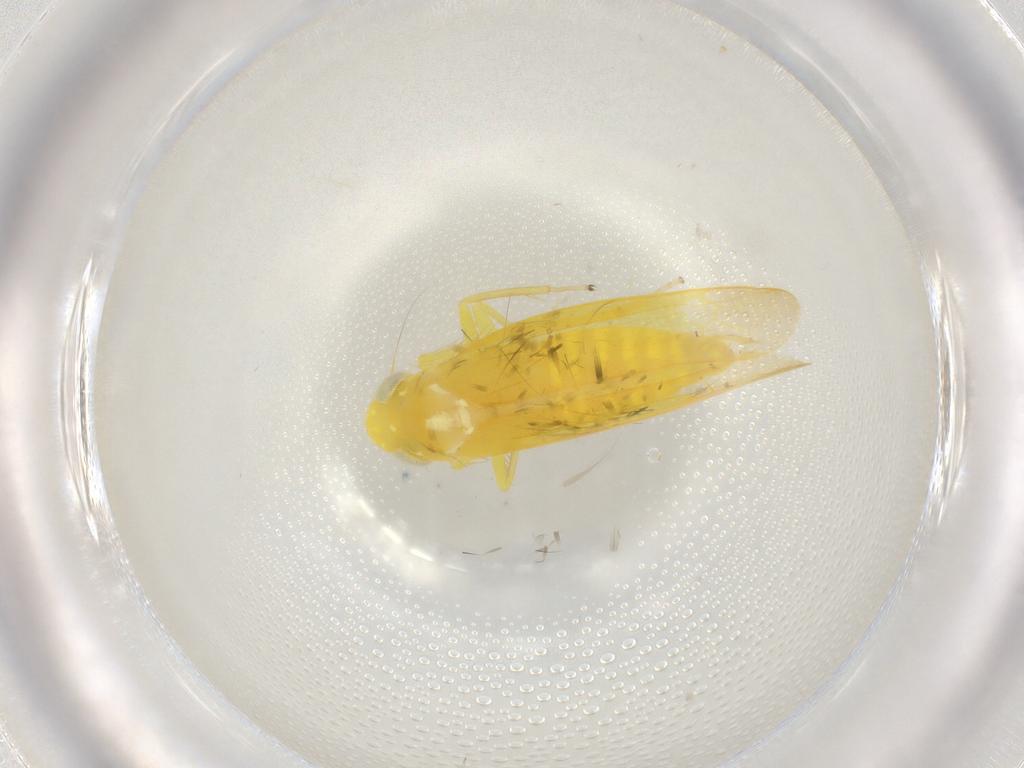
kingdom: Animalia
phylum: Arthropoda
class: Insecta
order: Hemiptera
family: Cicadellidae
